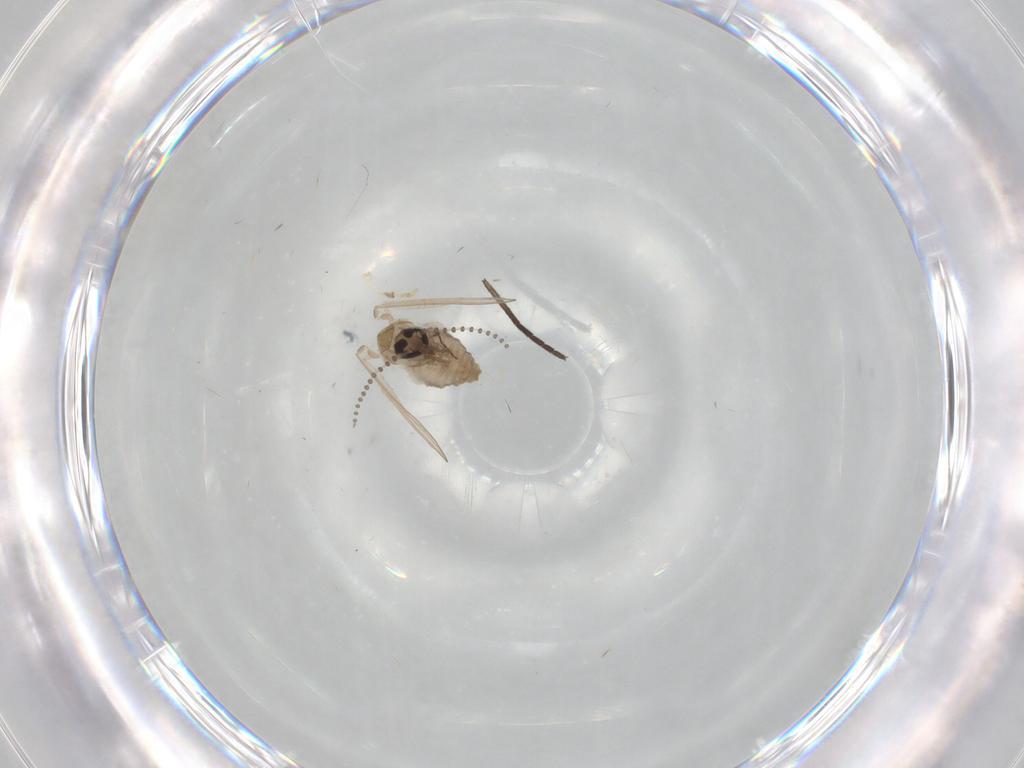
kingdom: Animalia
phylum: Arthropoda
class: Insecta
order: Diptera
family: Psychodidae
